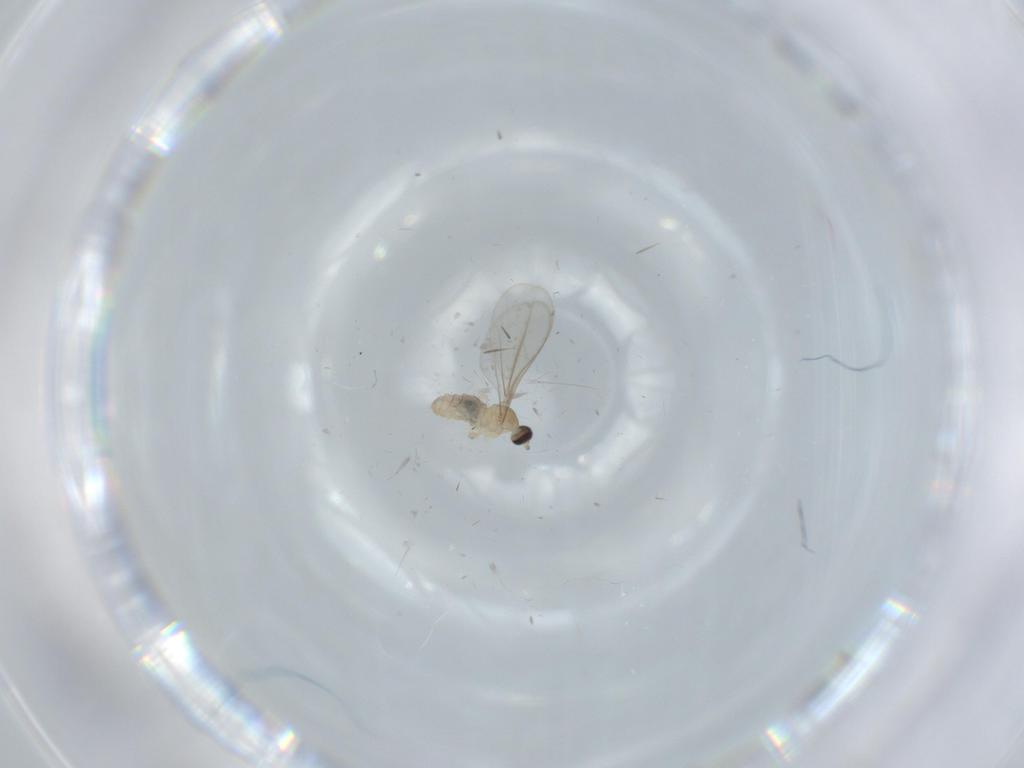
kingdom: Animalia
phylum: Arthropoda
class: Insecta
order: Diptera
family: Cecidomyiidae
